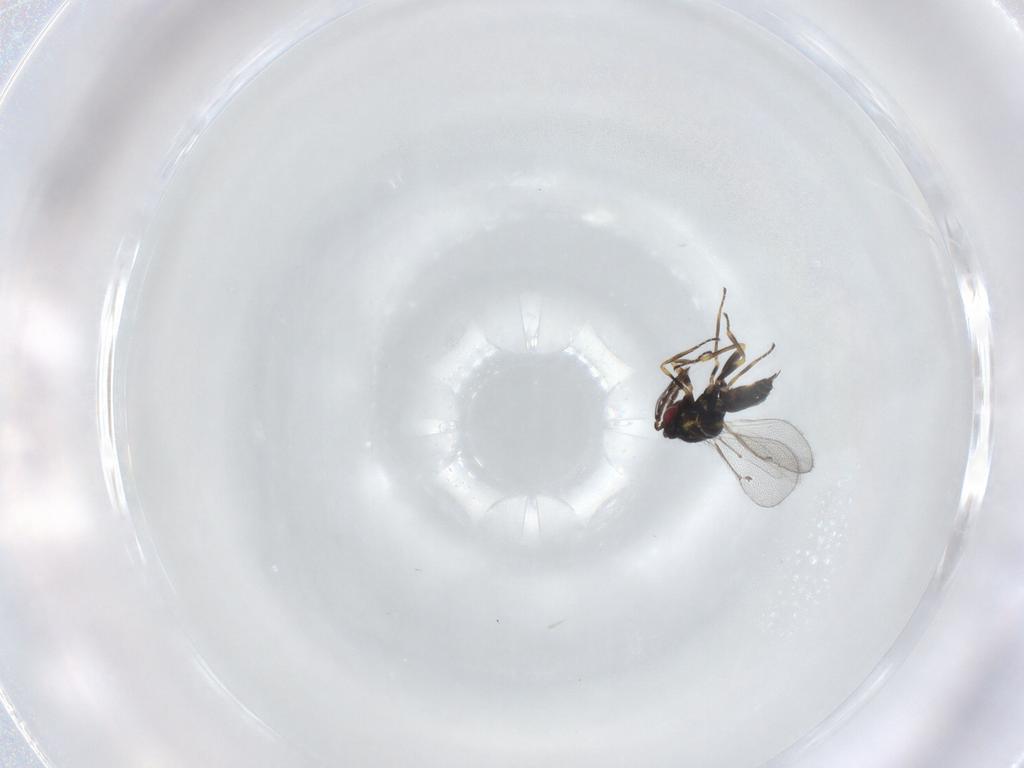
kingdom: Animalia
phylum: Arthropoda
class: Insecta
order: Hymenoptera
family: Eulophidae
